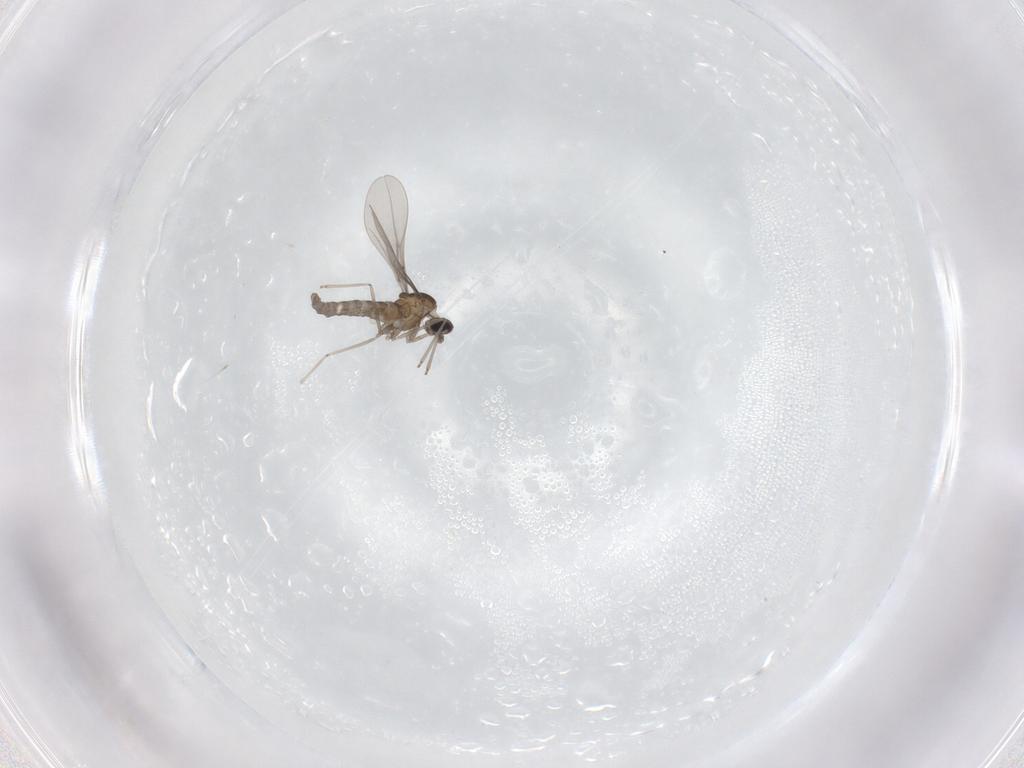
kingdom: Animalia
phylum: Arthropoda
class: Insecta
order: Diptera
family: Cecidomyiidae
